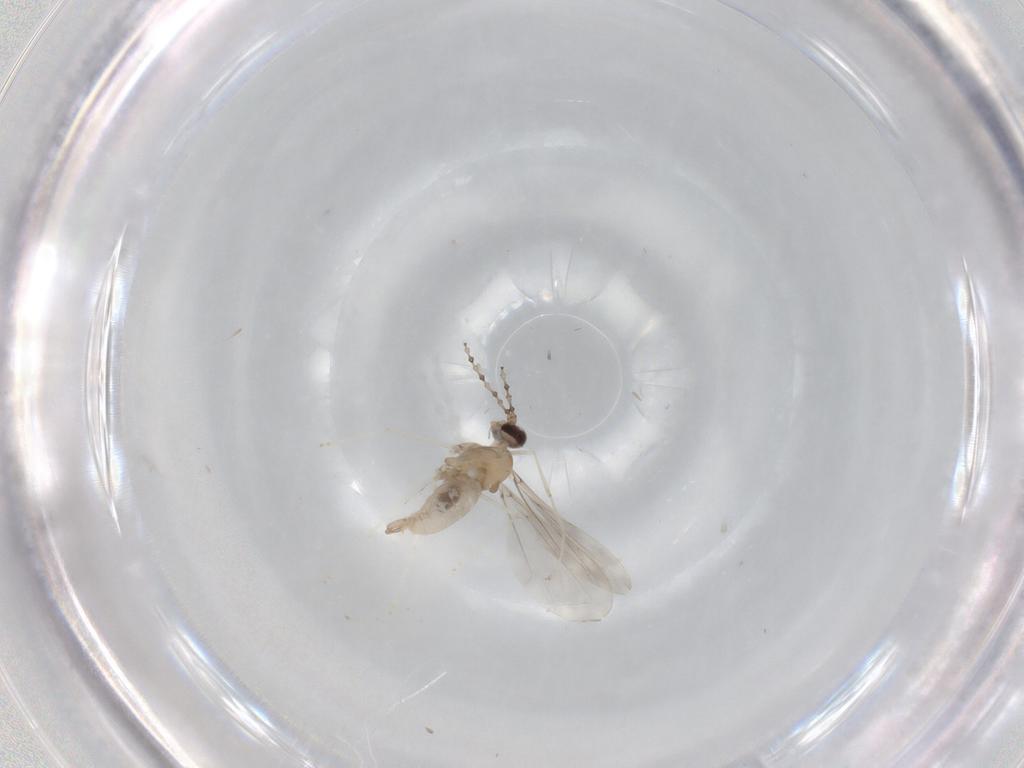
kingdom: Animalia
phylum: Arthropoda
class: Insecta
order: Diptera
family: Cecidomyiidae
